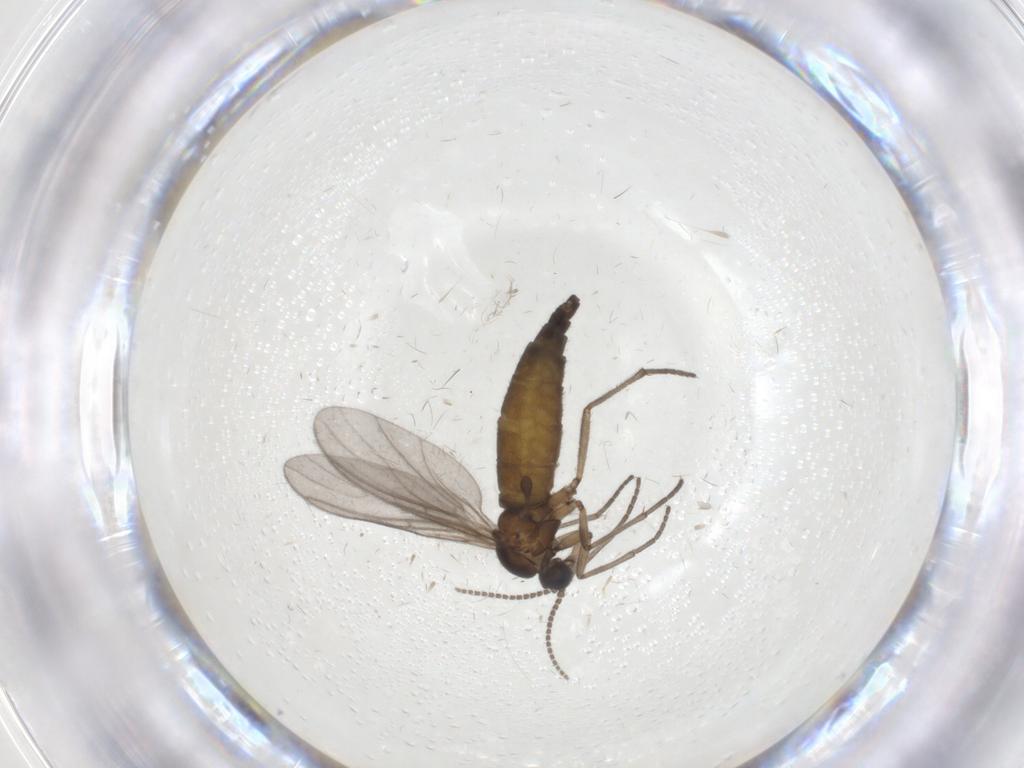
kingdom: Animalia
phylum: Arthropoda
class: Insecta
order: Diptera
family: Sciaridae
